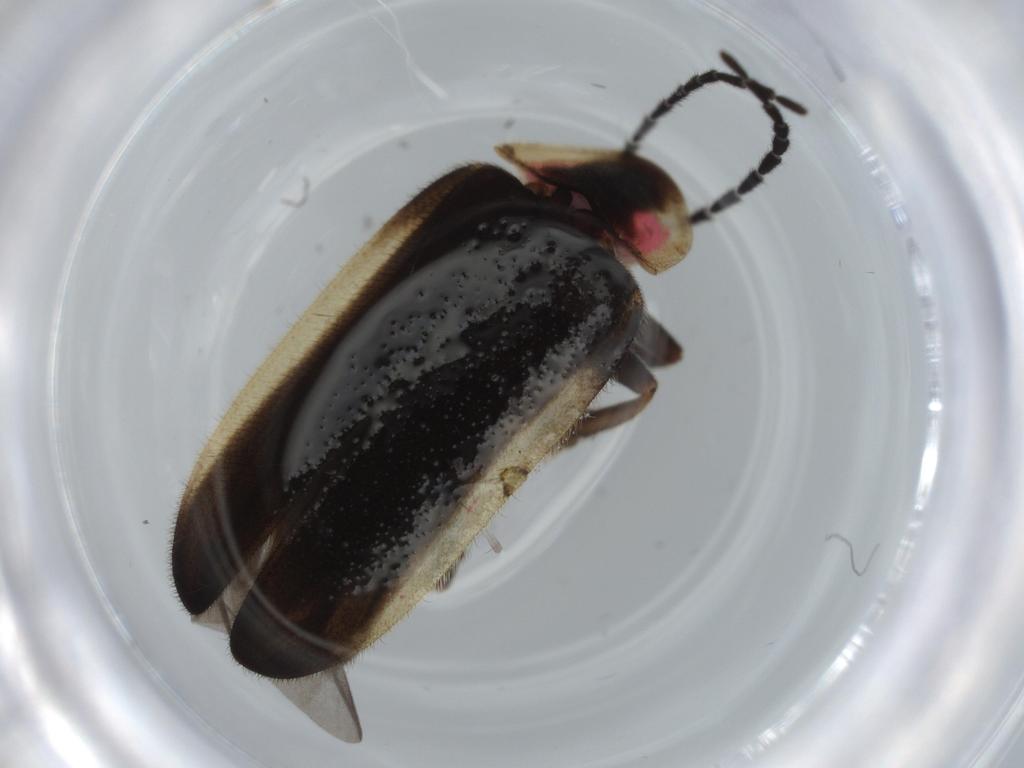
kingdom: Animalia
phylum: Arthropoda
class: Insecta
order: Coleoptera
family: Lampyridae
